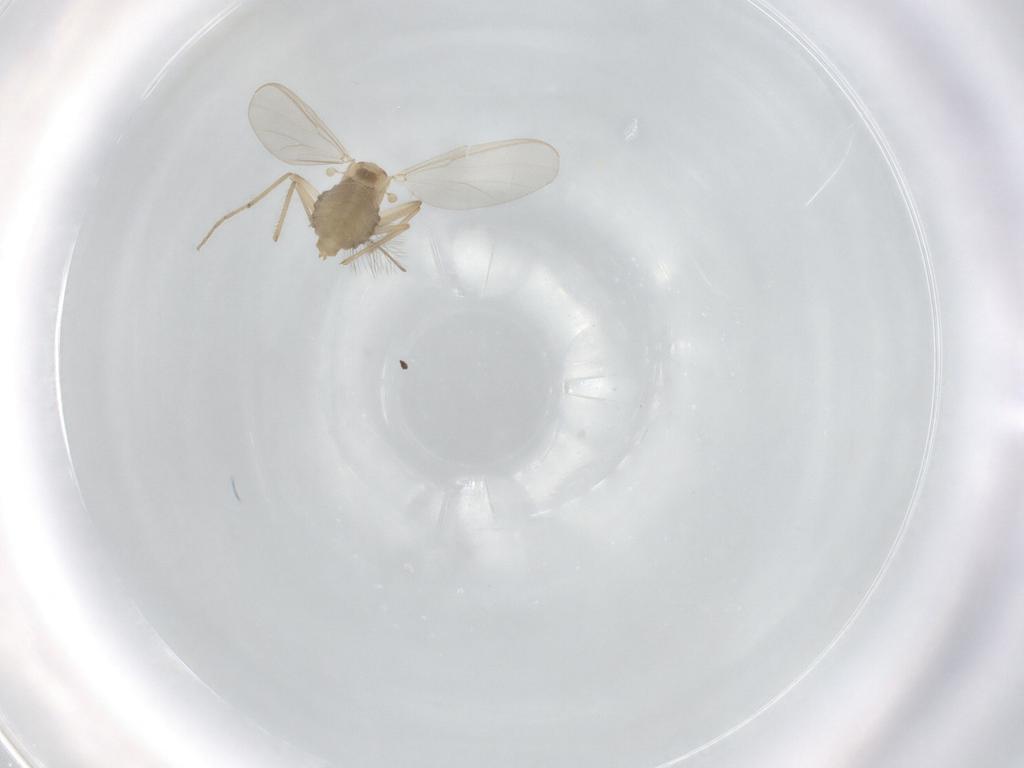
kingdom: Animalia
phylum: Arthropoda
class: Insecta
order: Diptera
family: Chironomidae
